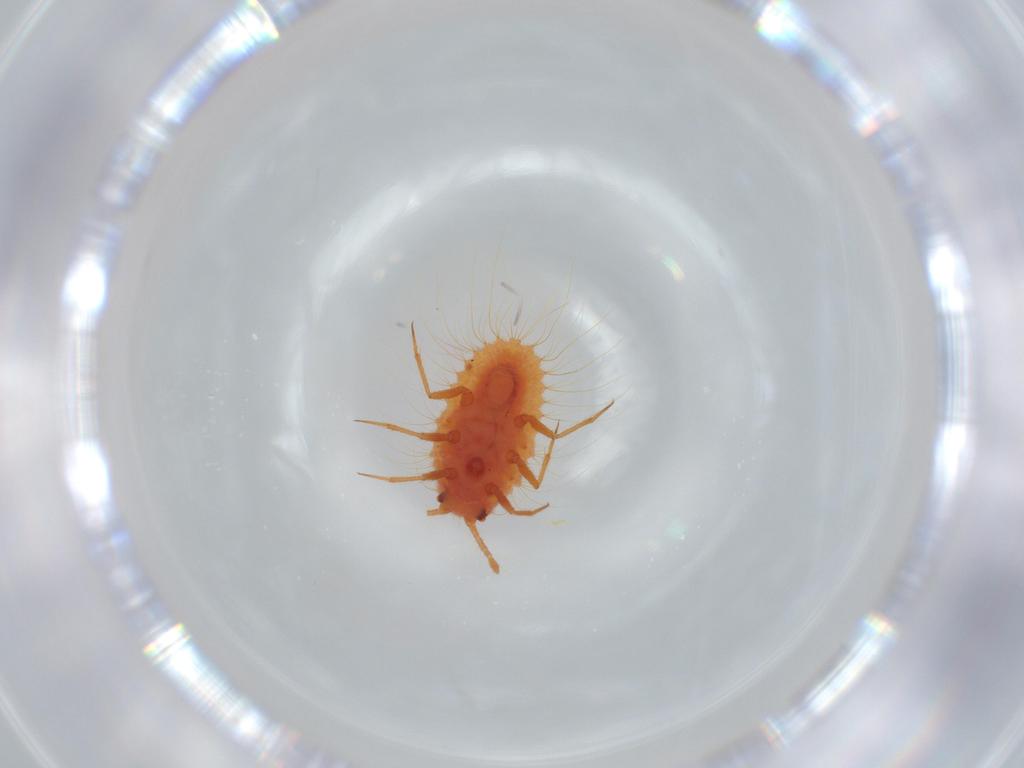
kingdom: Animalia
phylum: Arthropoda
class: Insecta
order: Hemiptera
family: Coccoidea_incertae_sedis
